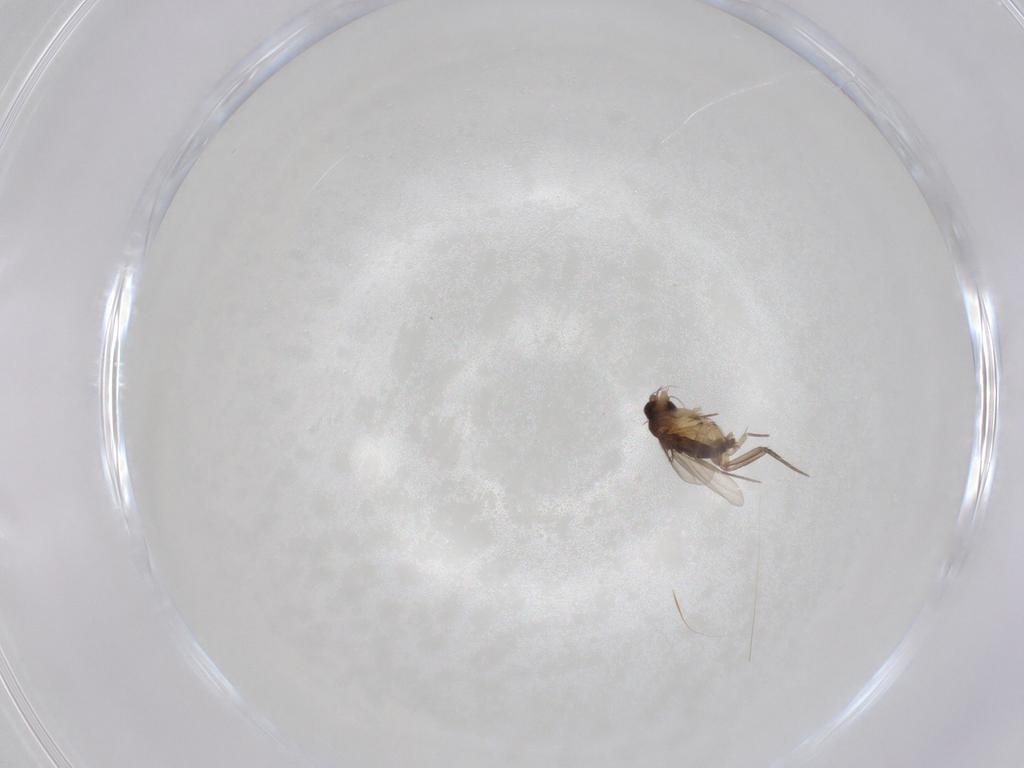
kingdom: Animalia
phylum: Arthropoda
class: Insecta
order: Diptera
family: Phoridae
